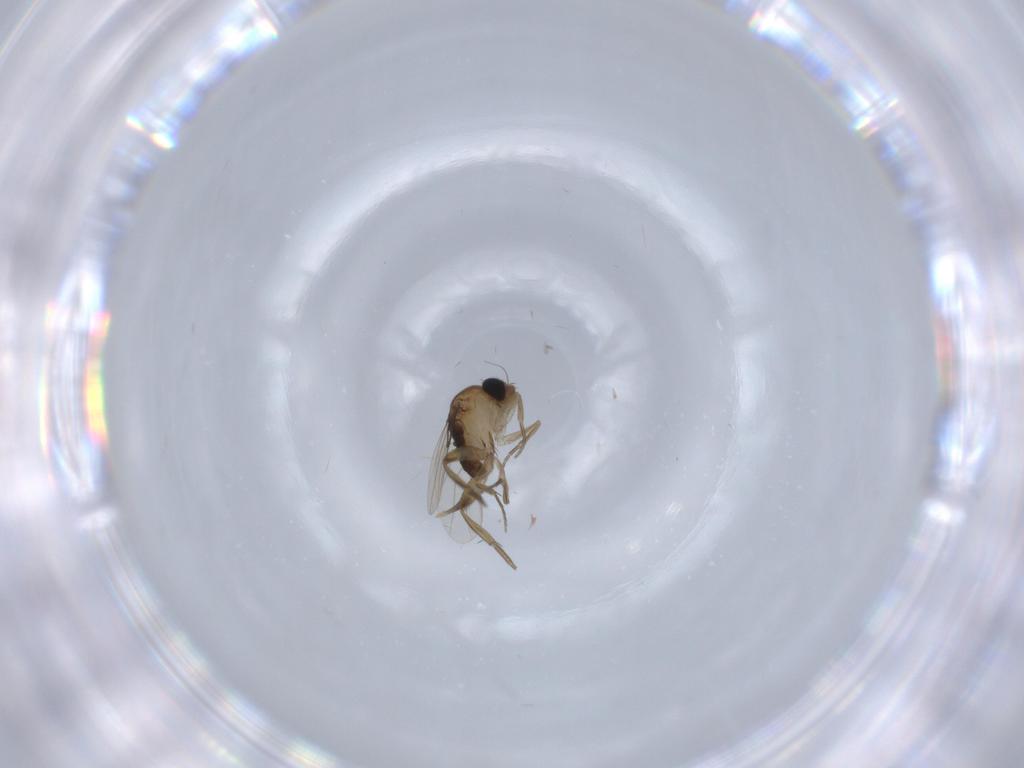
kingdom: Animalia
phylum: Arthropoda
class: Insecta
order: Diptera
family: Phoridae
